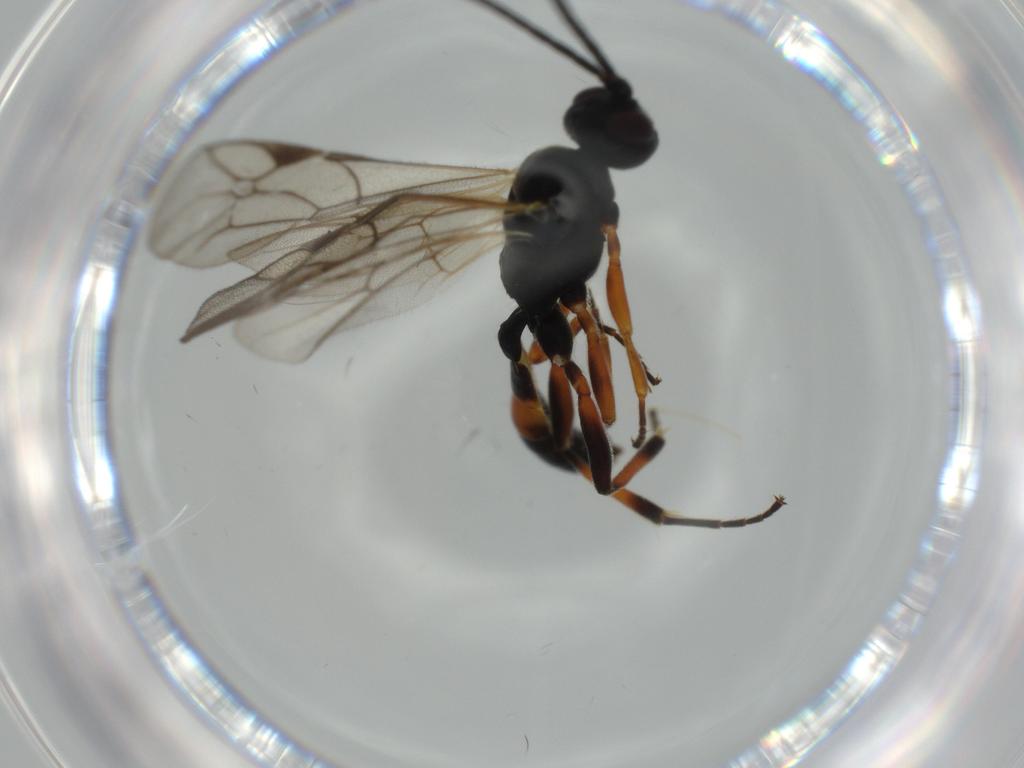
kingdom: Animalia
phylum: Arthropoda
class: Insecta
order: Hymenoptera
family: Ichneumonidae
